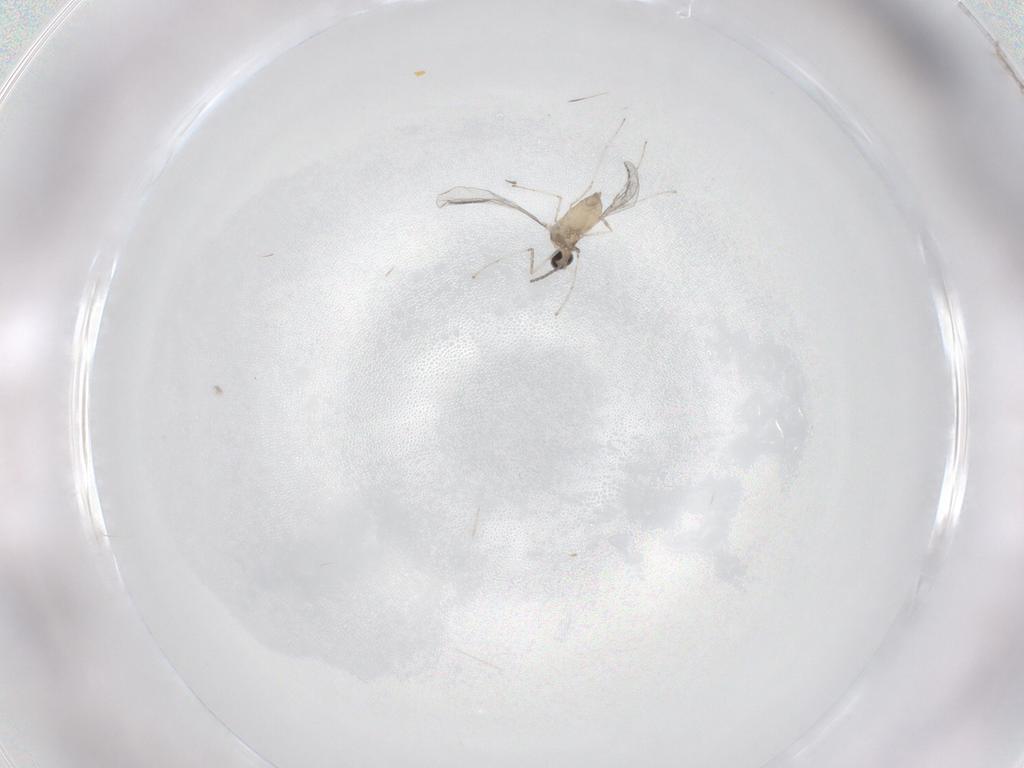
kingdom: Animalia
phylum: Arthropoda
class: Insecta
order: Diptera
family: Cecidomyiidae
